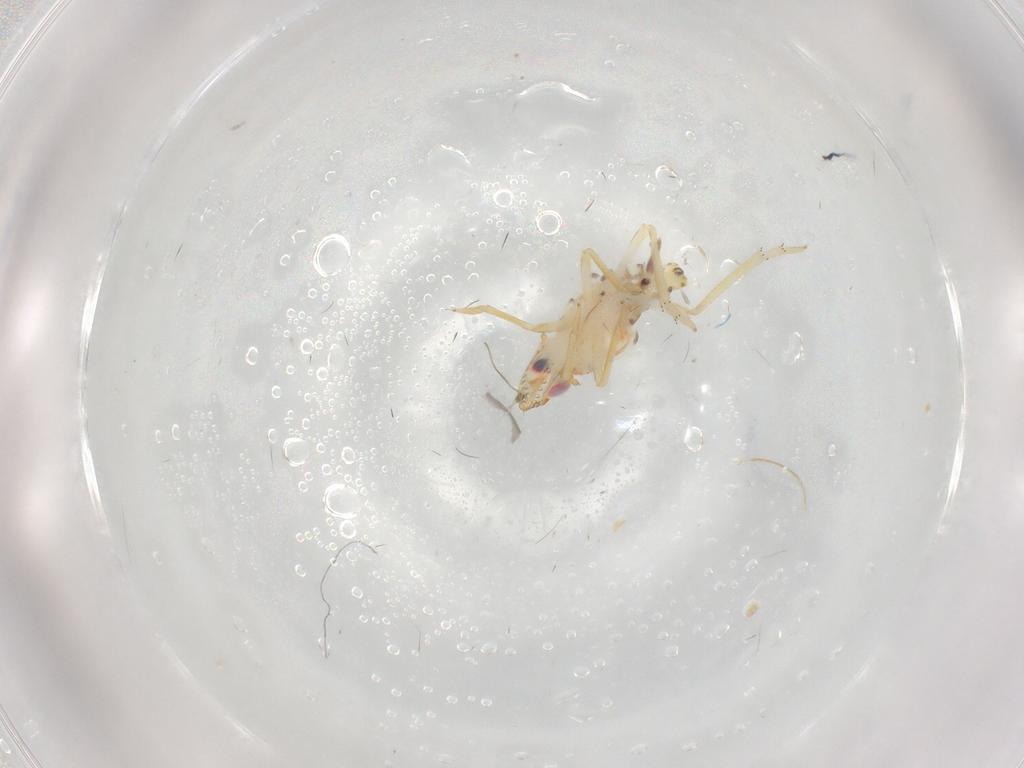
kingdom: Animalia
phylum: Arthropoda
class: Insecta
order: Hemiptera
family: Tropiduchidae
